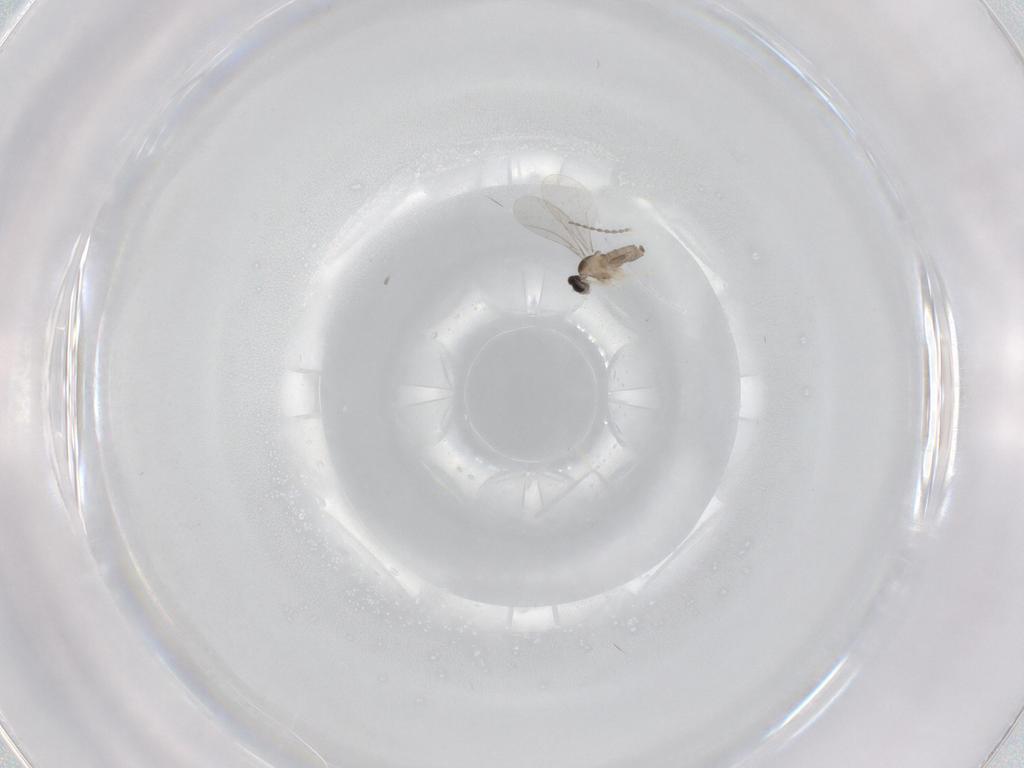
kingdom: Animalia
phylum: Arthropoda
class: Insecta
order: Diptera
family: Cecidomyiidae
